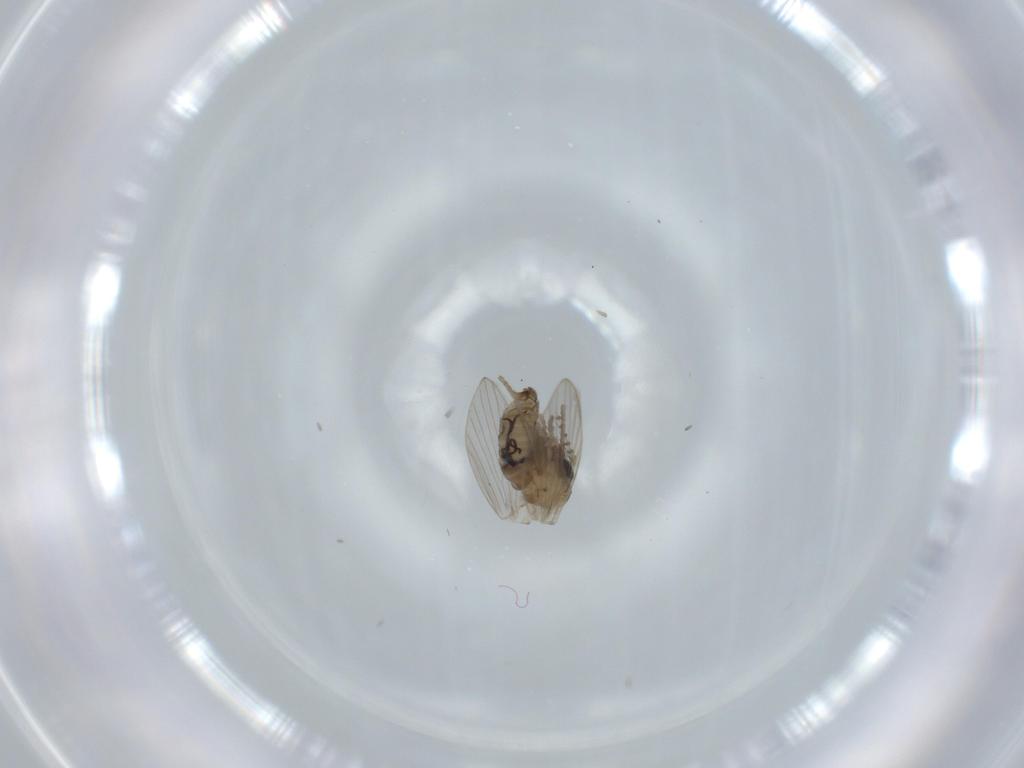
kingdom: Animalia
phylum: Arthropoda
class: Insecta
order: Diptera
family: Psychodidae
